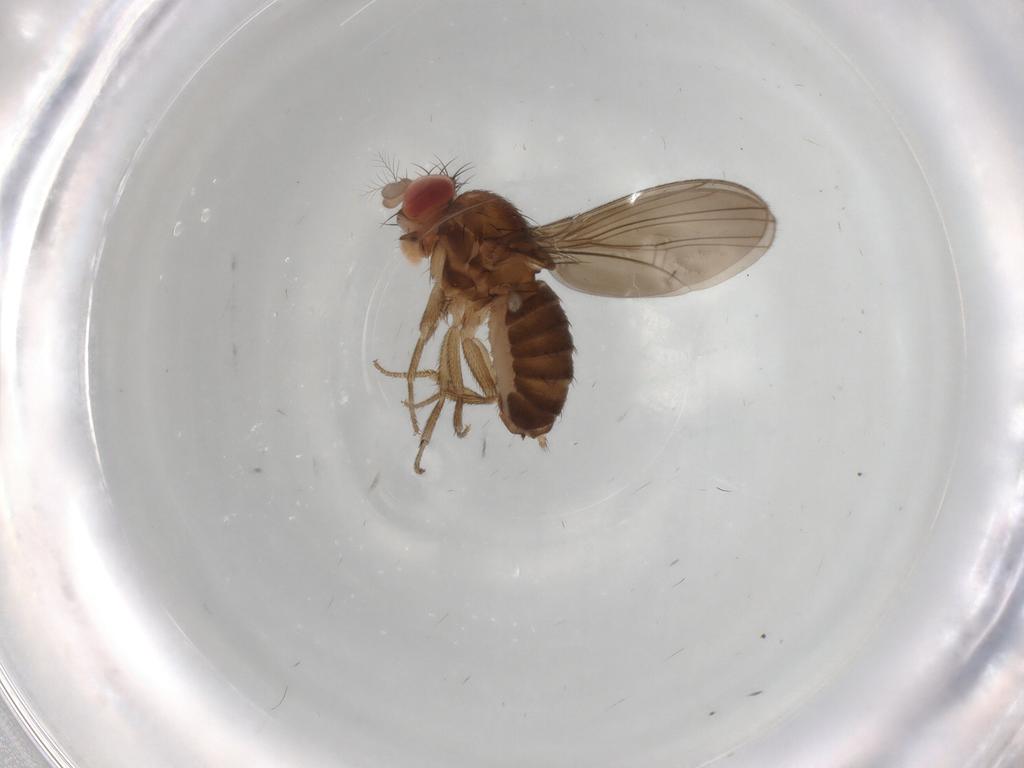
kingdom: Animalia
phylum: Arthropoda
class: Insecta
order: Diptera
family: Drosophilidae
